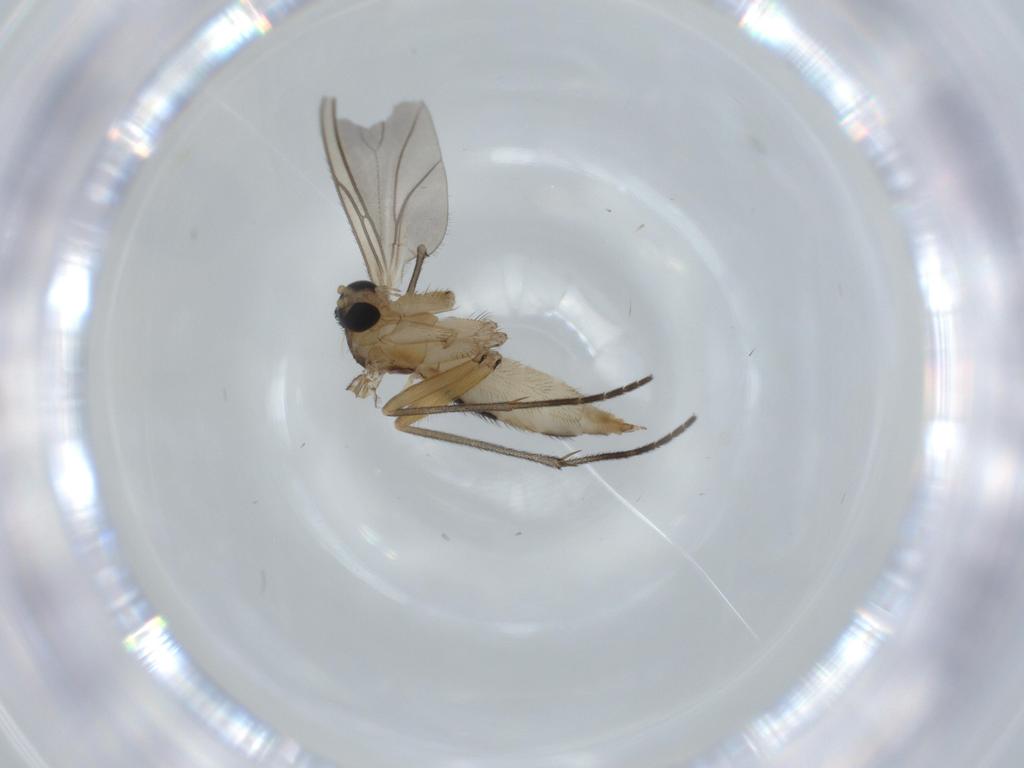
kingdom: Animalia
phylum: Arthropoda
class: Insecta
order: Diptera
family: Sciaridae
